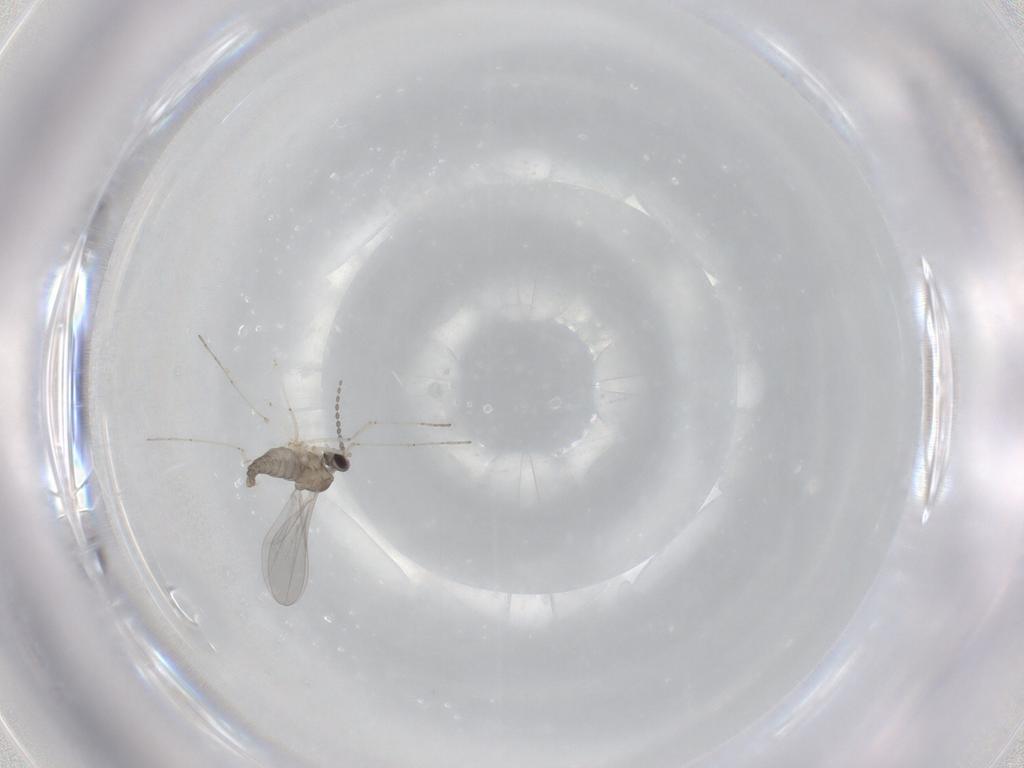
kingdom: Animalia
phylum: Arthropoda
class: Insecta
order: Diptera
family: Cecidomyiidae
